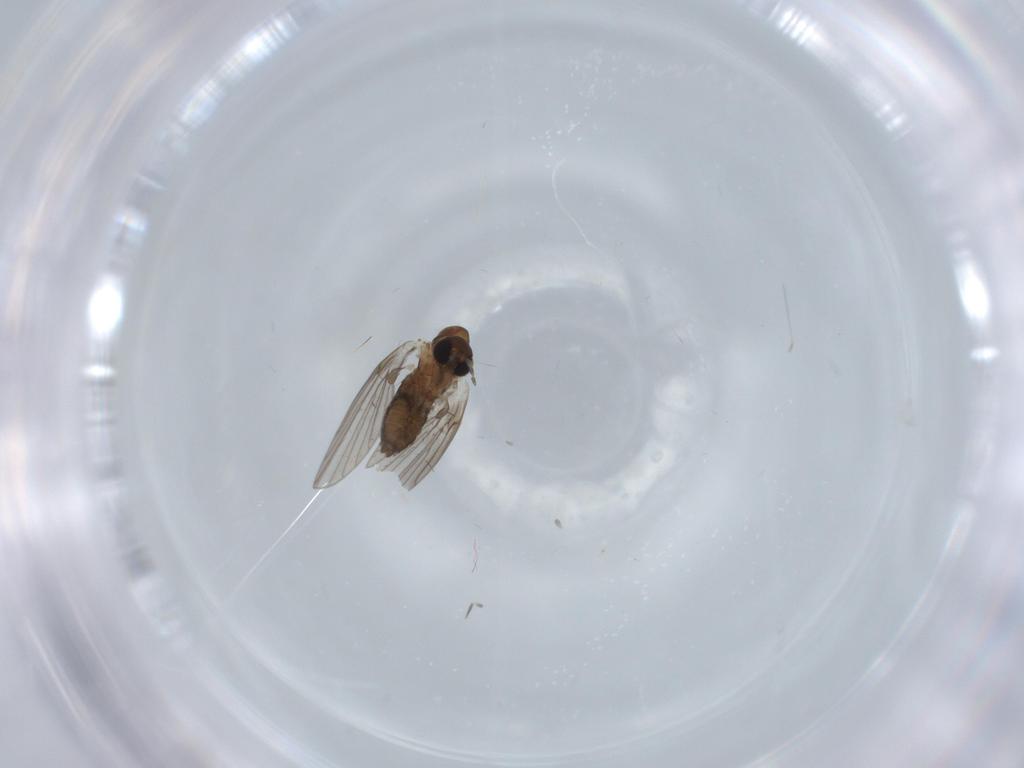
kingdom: Animalia
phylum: Arthropoda
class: Insecta
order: Diptera
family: Psychodidae
